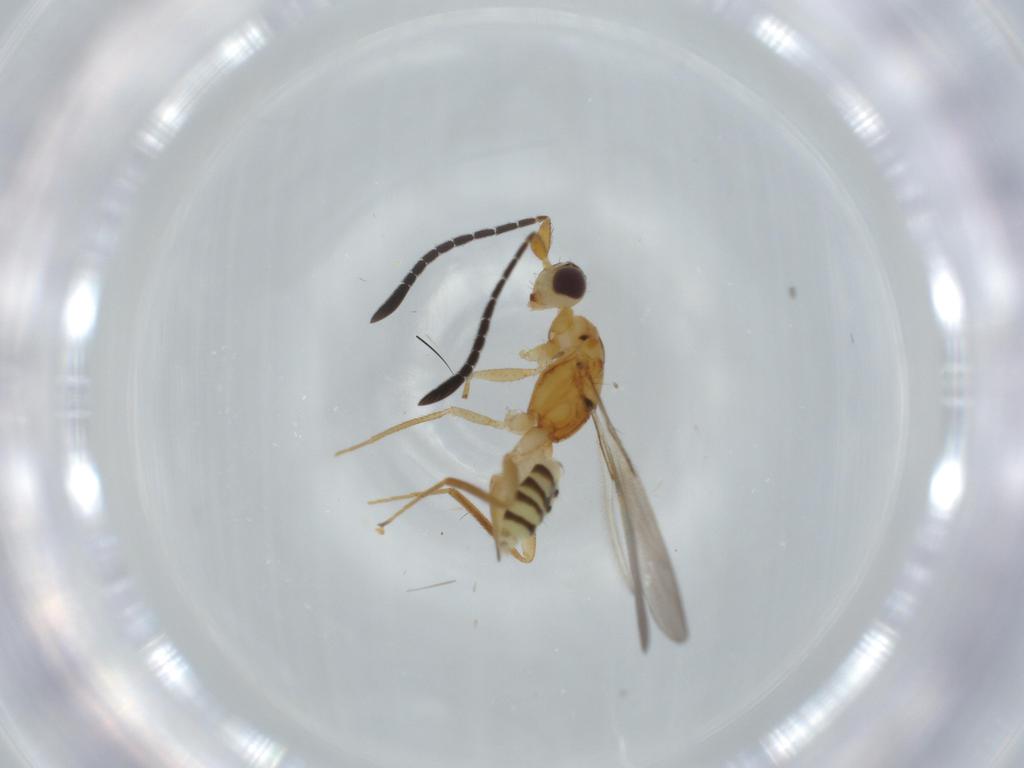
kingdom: Animalia
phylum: Arthropoda
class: Insecta
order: Hymenoptera
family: Mymaridae
